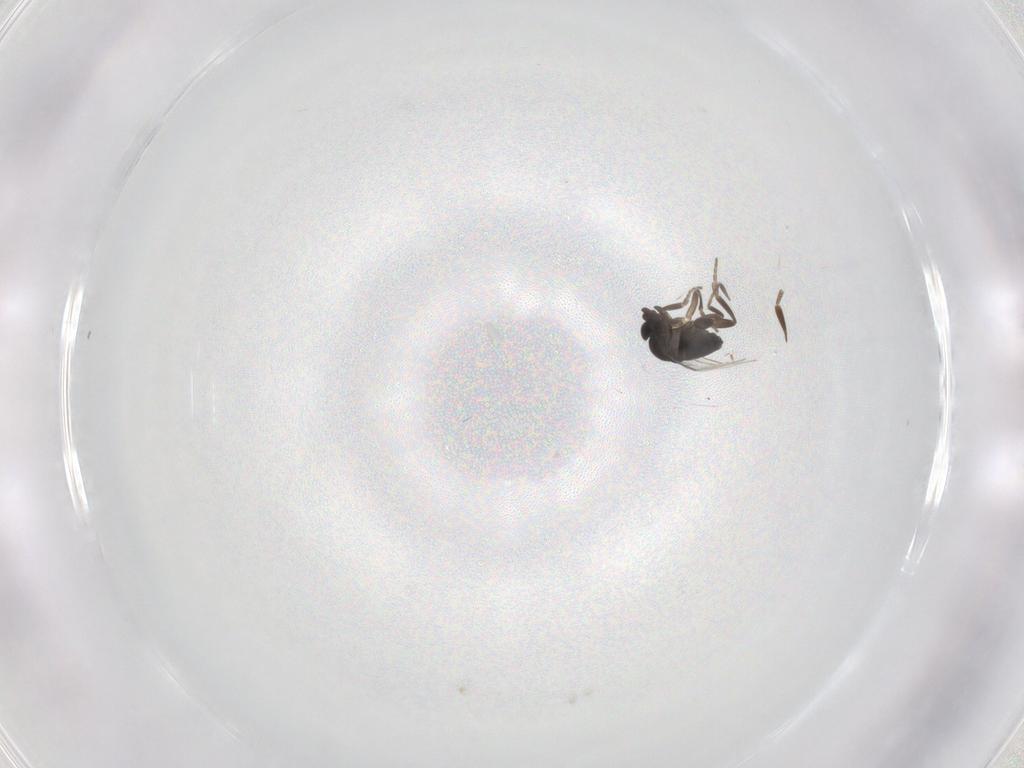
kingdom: Animalia
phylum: Arthropoda
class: Insecta
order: Diptera
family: Phoridae
